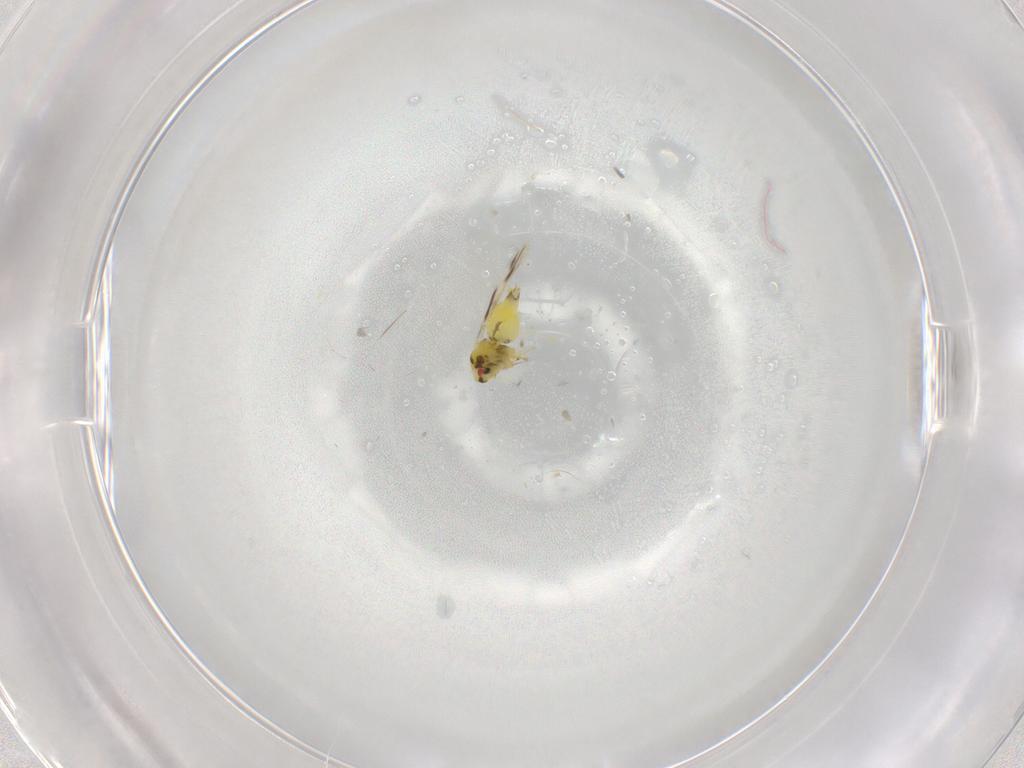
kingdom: Animalia
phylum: Arthropoda
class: Insecta
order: Hemiptera
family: Aleyrodidae
